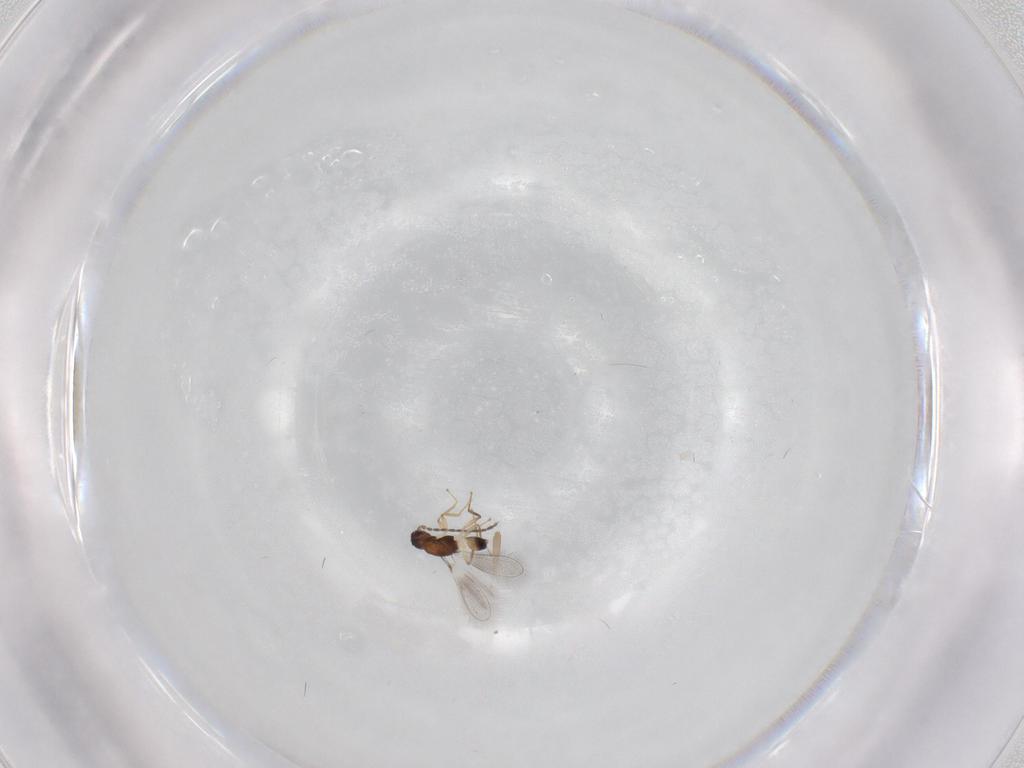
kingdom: Animalia
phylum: Arthropoda
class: Insecta
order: Hymenoptera
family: Mymaridae
